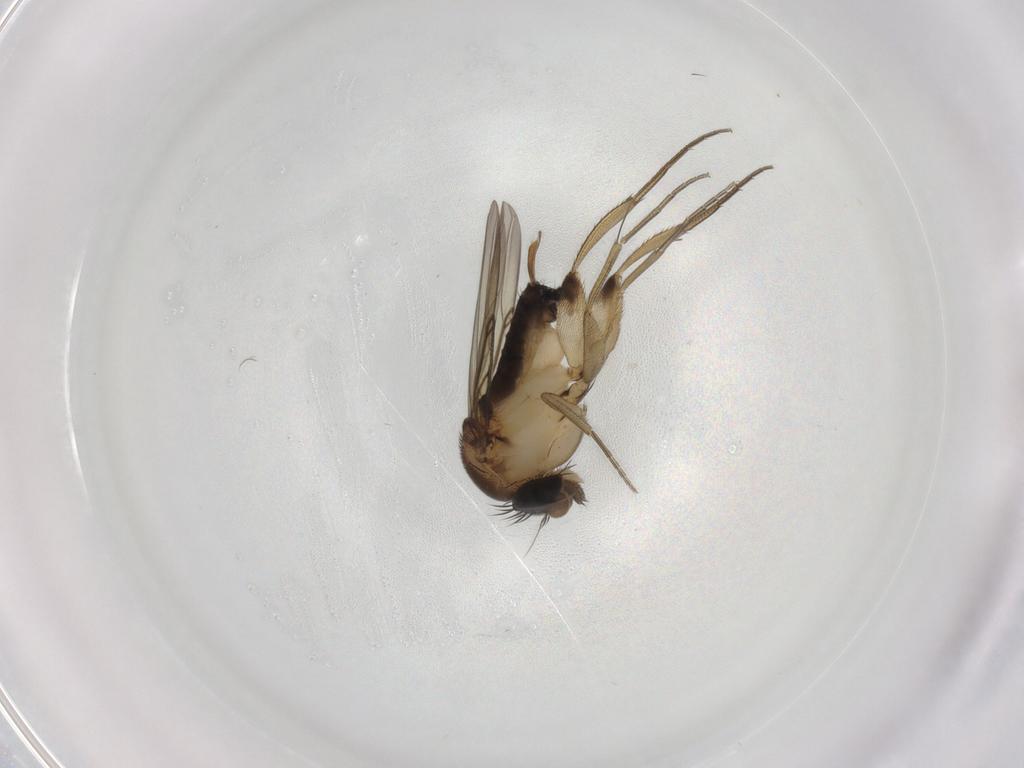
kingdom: Animalia
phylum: Arthropoda
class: Insecta
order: Diptera
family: Phoridae
